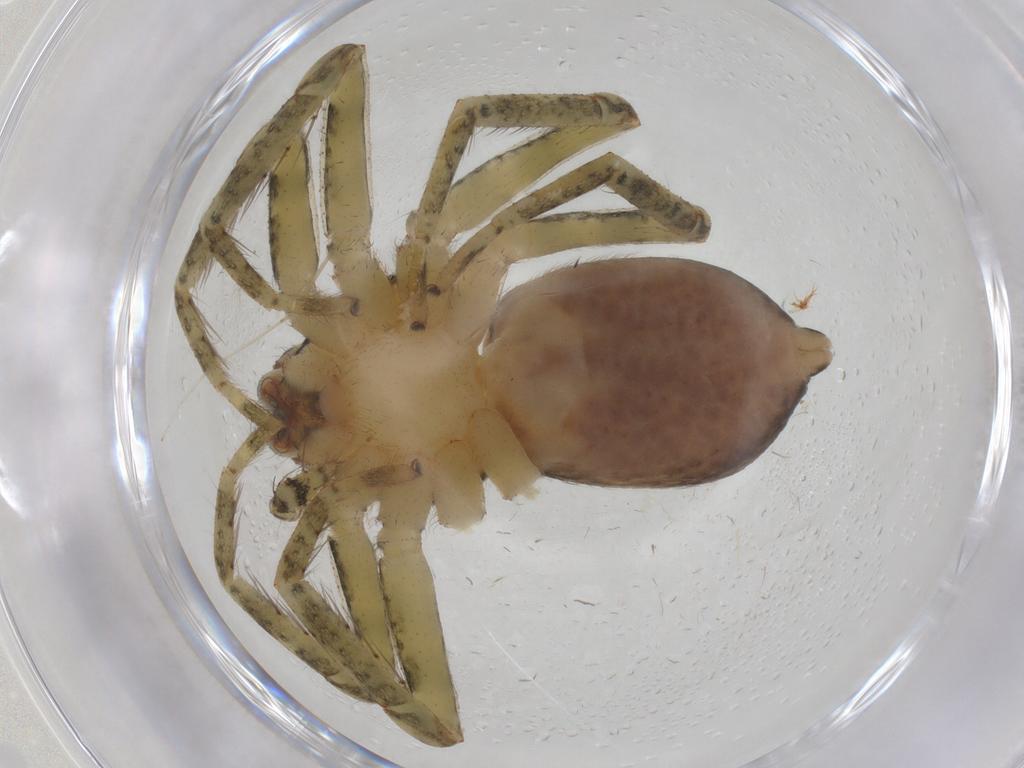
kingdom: Animalia
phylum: Arthropoda
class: Arachnida
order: Araneae
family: Selenopidae
